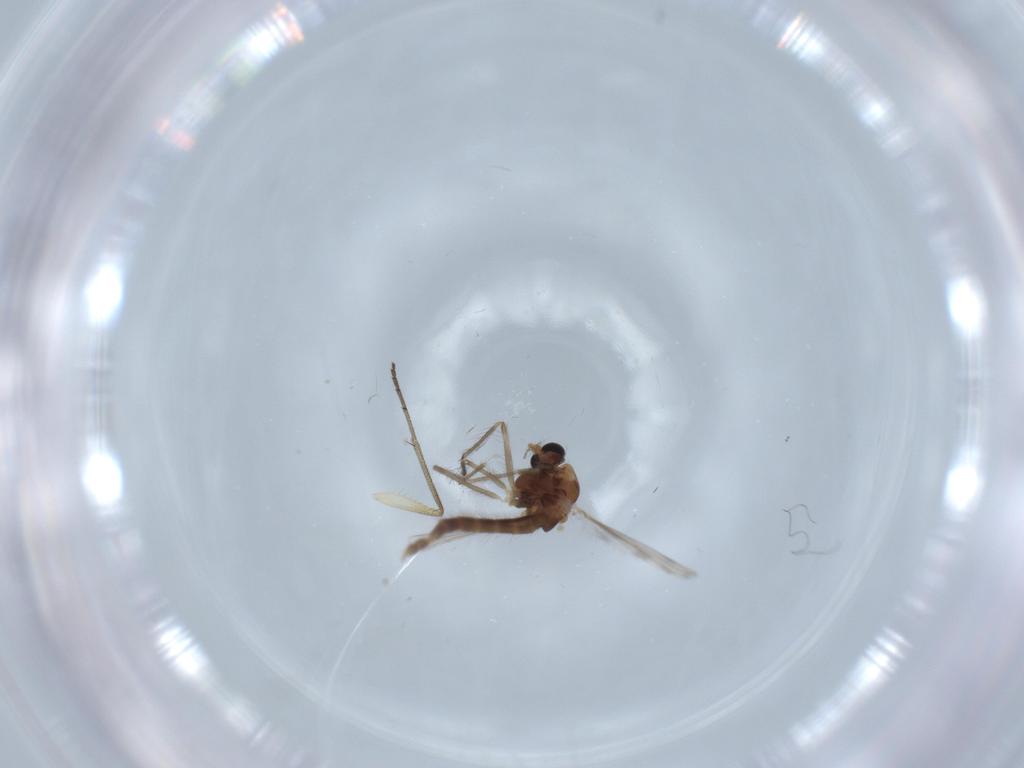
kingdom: Animalia
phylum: Arthropoda
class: Insecta
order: Diptera
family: Chironomidae
